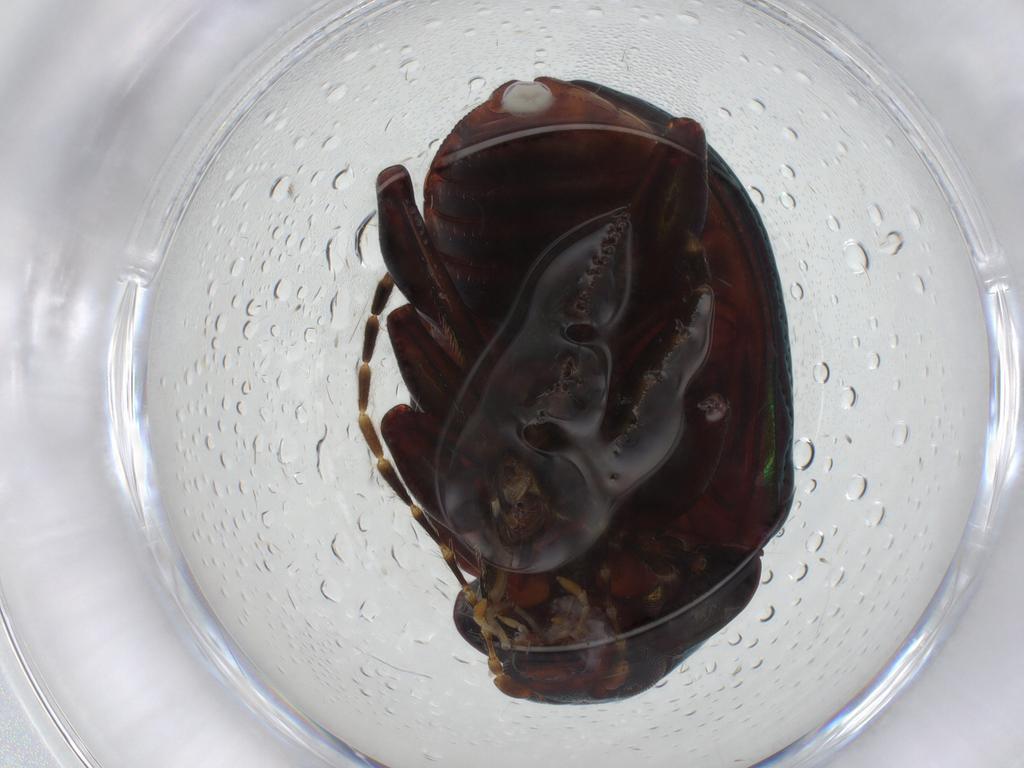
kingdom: Animalia
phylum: Arthropoda
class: Insecta
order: Coleoptera
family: Chrysomelidae
